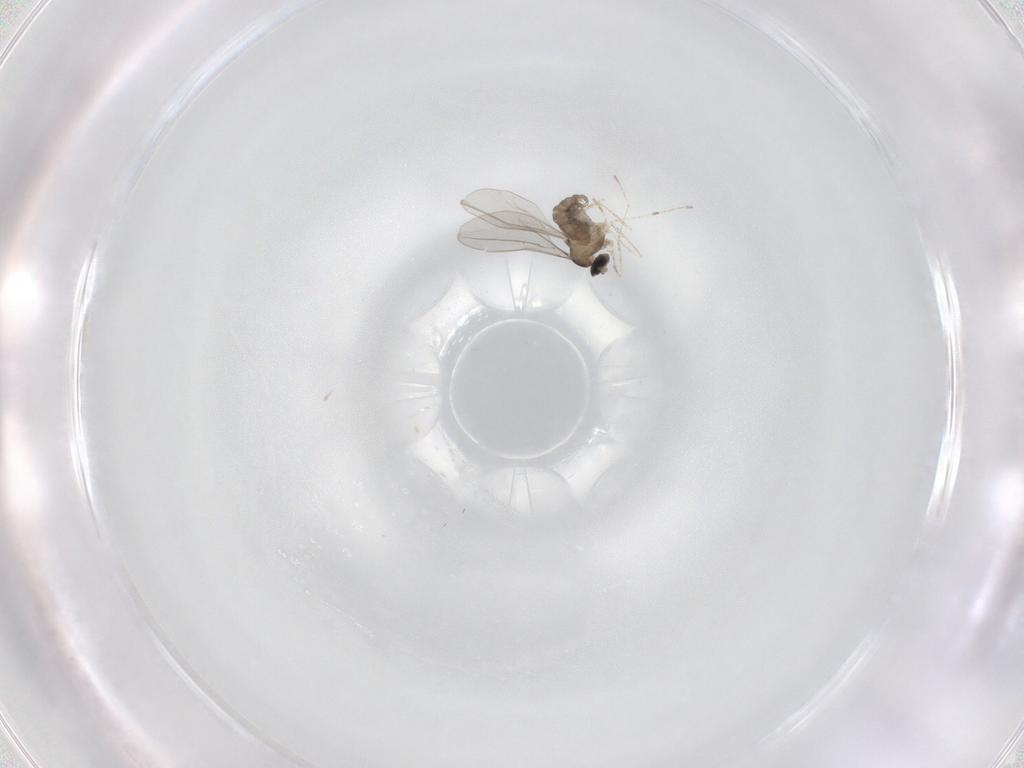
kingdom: Animalia
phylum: Arthropoda
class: Insecta
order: Diptera
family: Cecidomyiidae
